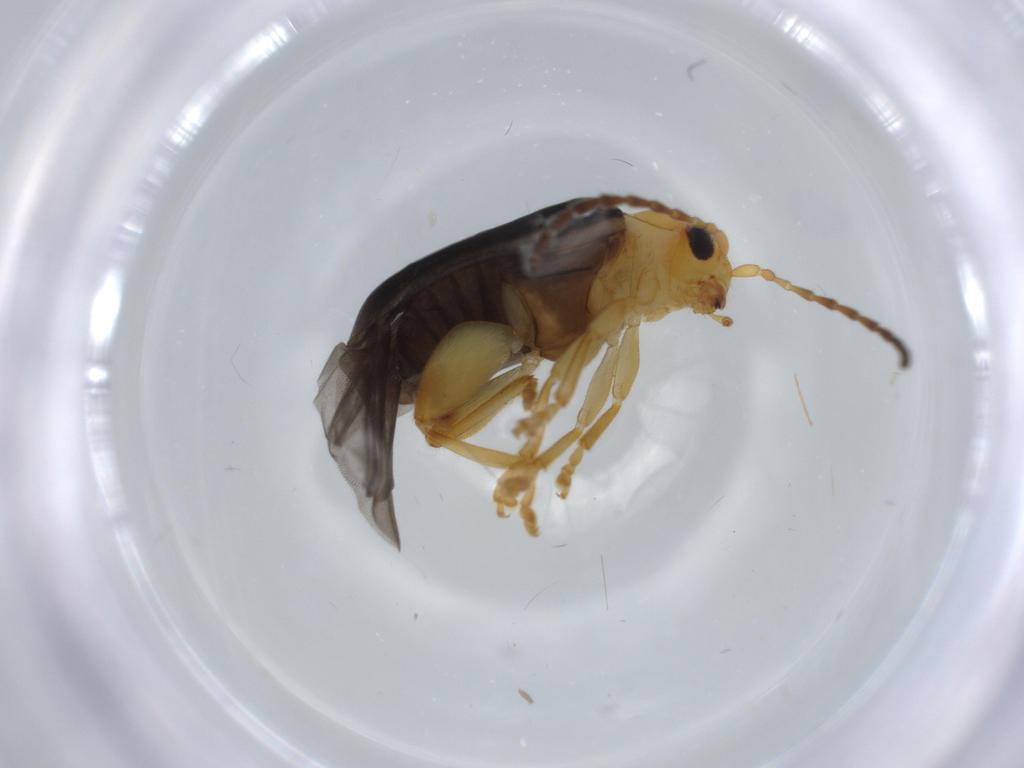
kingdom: Animalia
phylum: Arthropoda
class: Insecta
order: Coleoptera
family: Chrysomelidae
